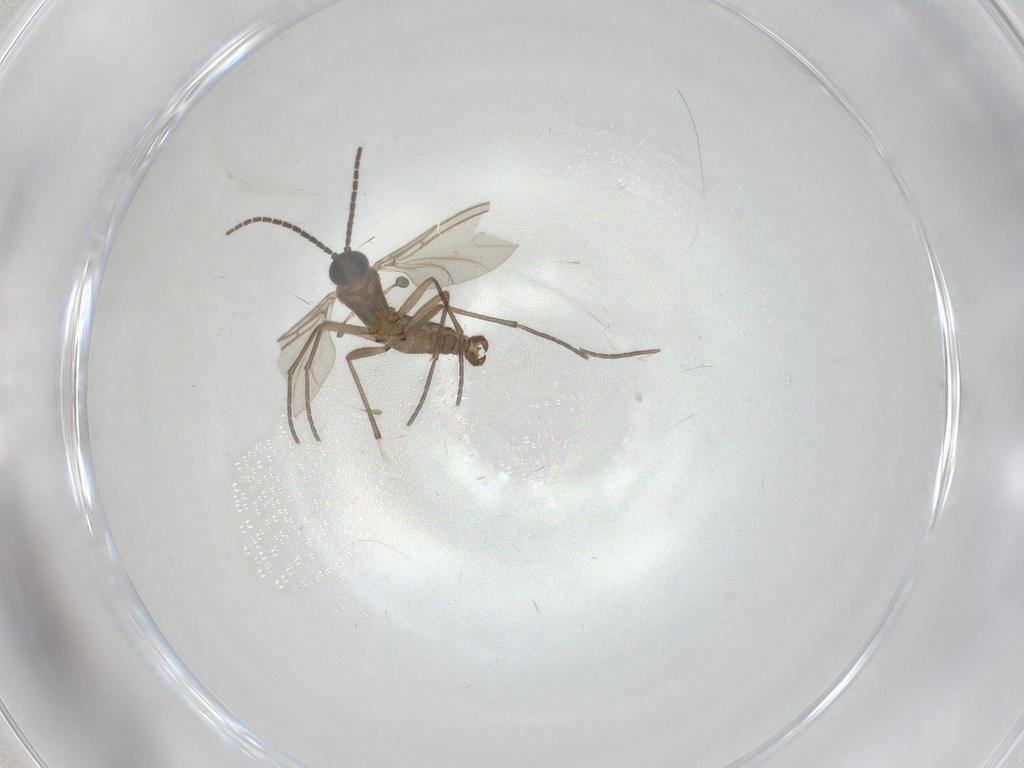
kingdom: Animalia
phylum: Arthropoda
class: Insecta
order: Diptera
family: Sciaridae
